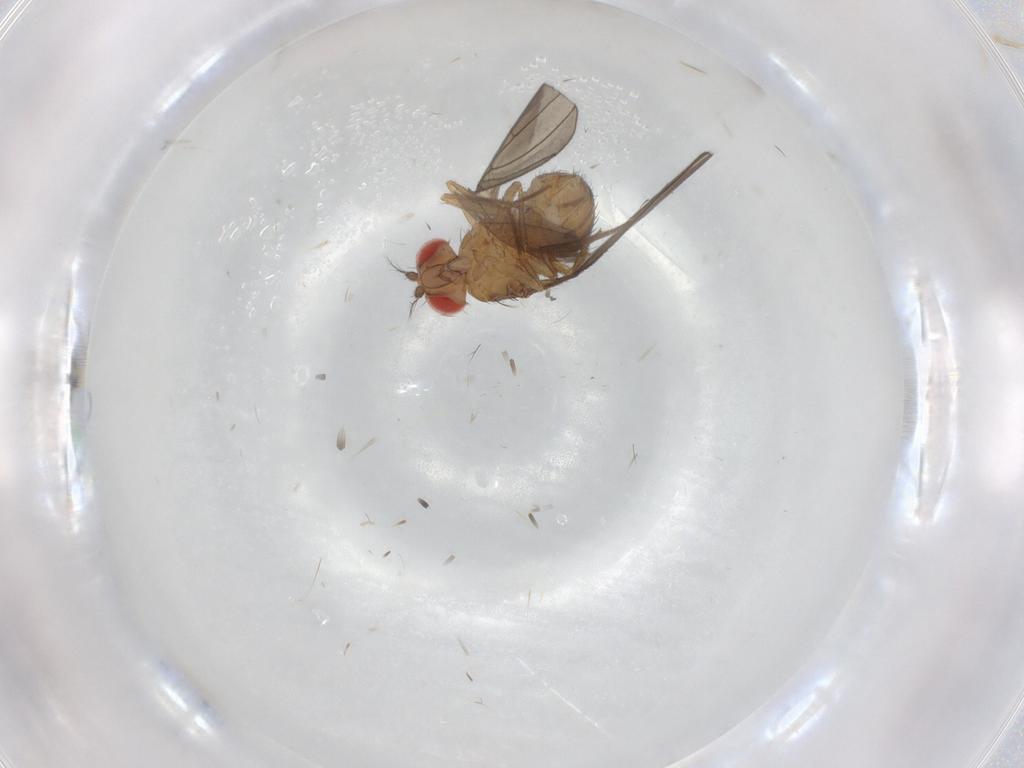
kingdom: Animalia
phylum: Arthropoda
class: Insecta
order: Diptera
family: Drosophilidae
